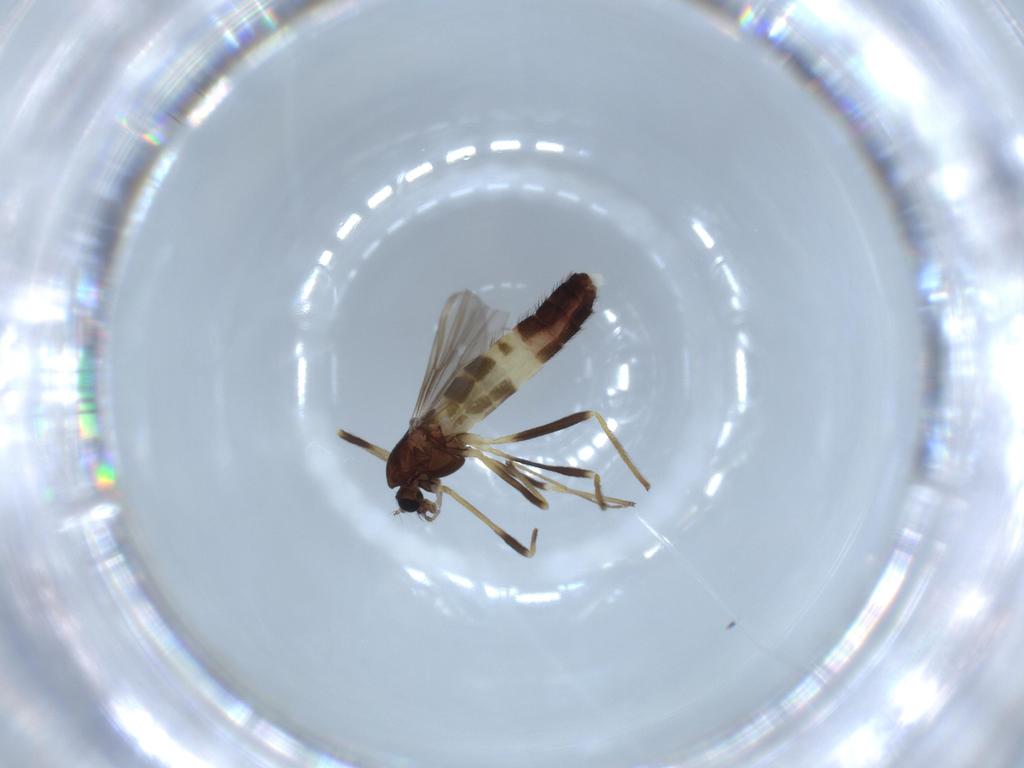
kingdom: Animalia
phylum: Arthropoda
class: Insecta
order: Diptera
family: Chironomidae
